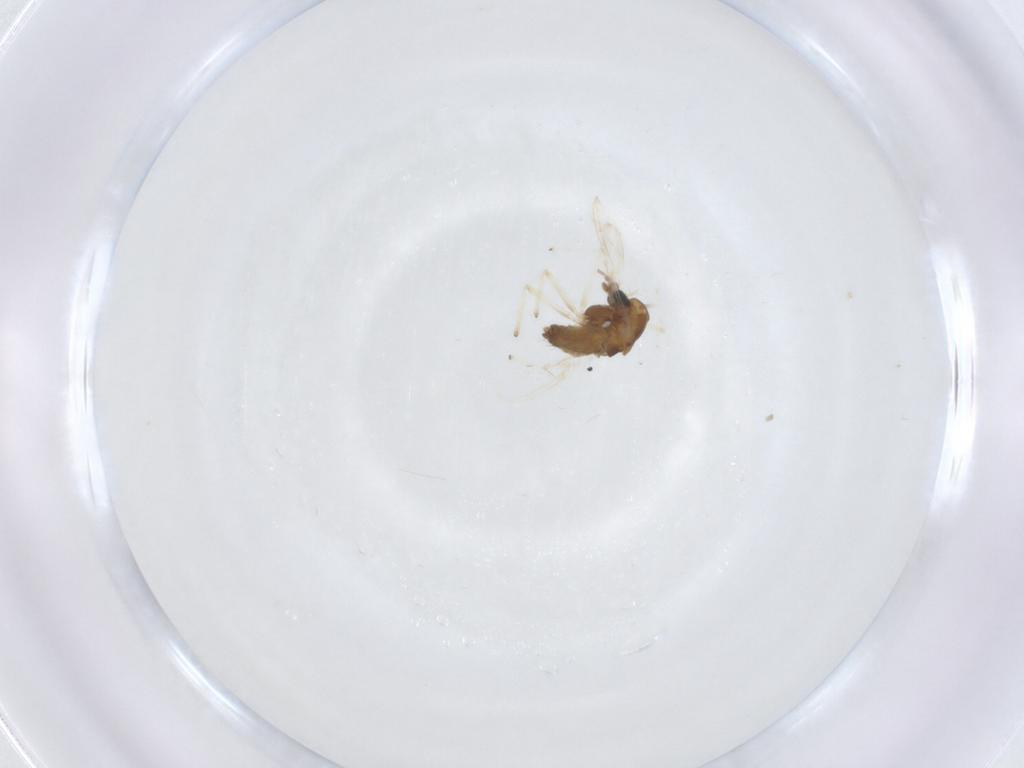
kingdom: Animalia
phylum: Arthropoda
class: Insecta
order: Diptera
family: Chironomidae
